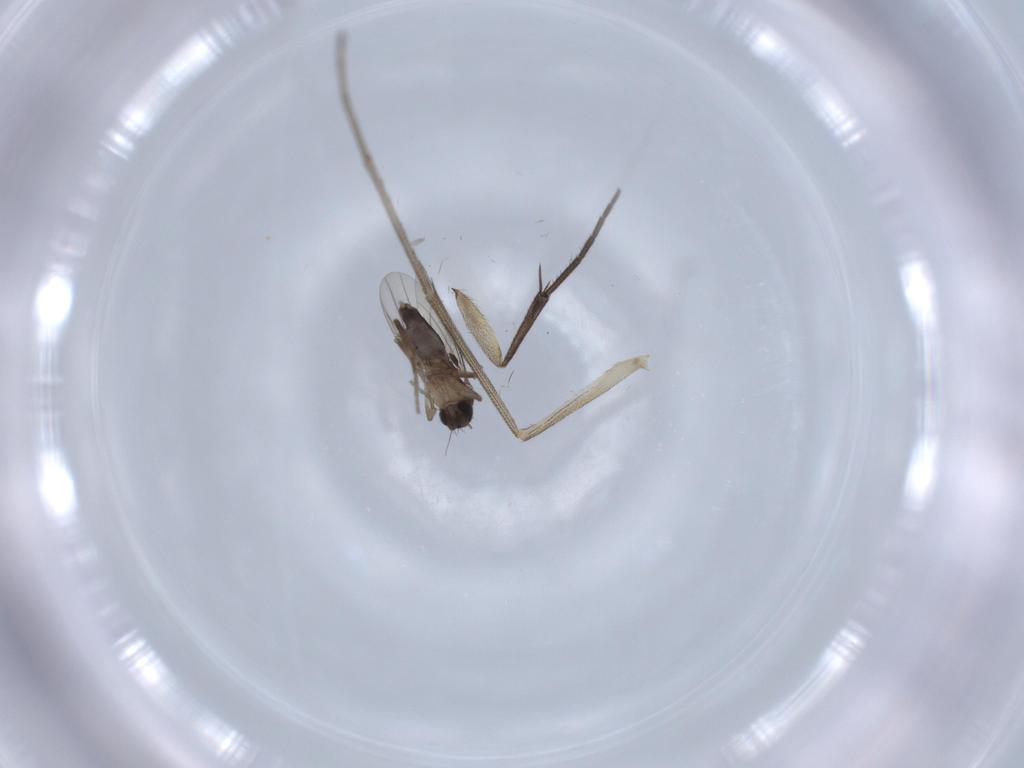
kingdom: Animalia
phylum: Arthropoda
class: Insecta
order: Diptera
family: Phoridae
